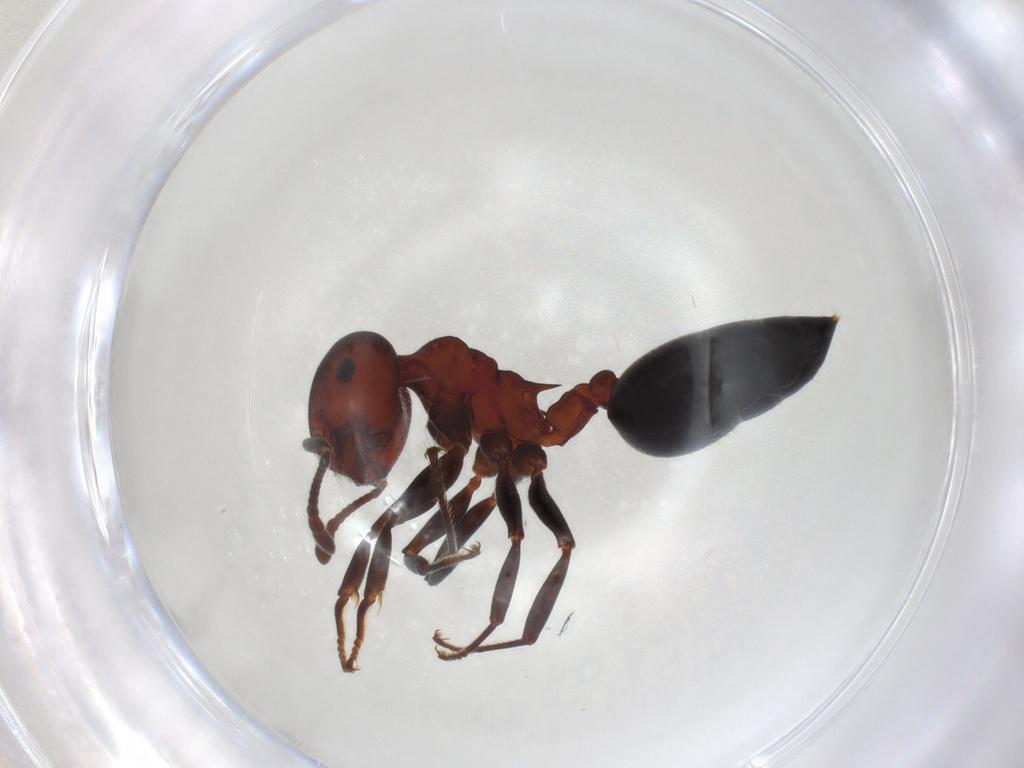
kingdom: Animalia
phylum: Arthropoda
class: Insecta
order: Hymenoptera
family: Formicidae
